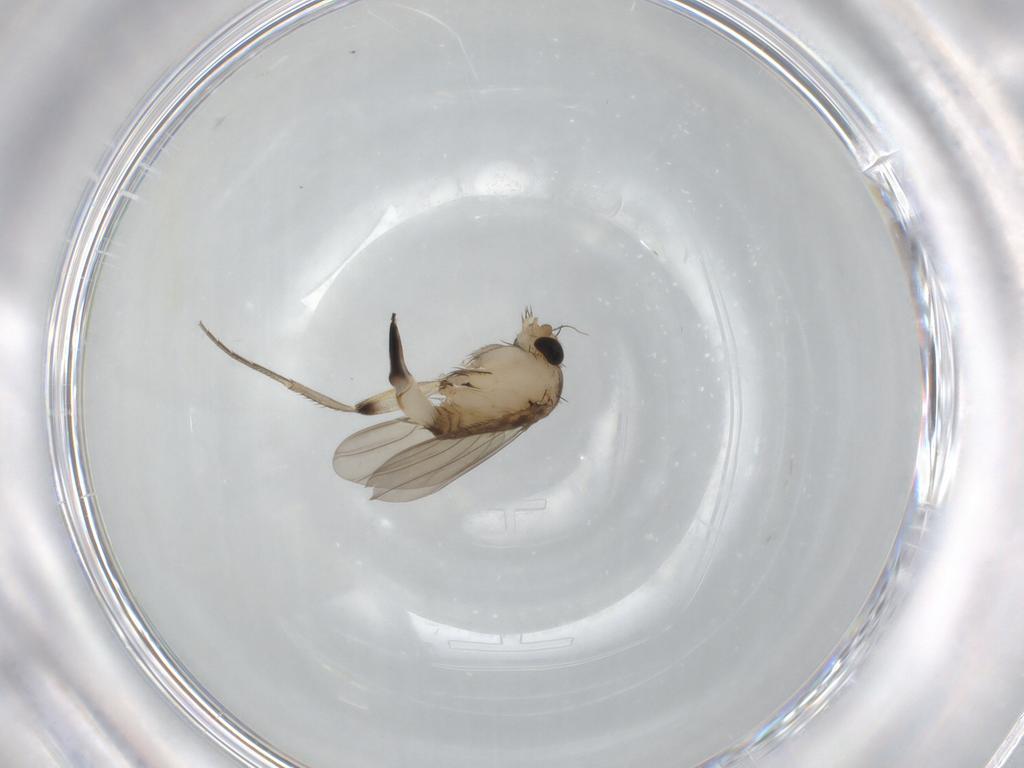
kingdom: Animalia
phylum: Arthropoda
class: Insecta
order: Diptera
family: Phoridae
